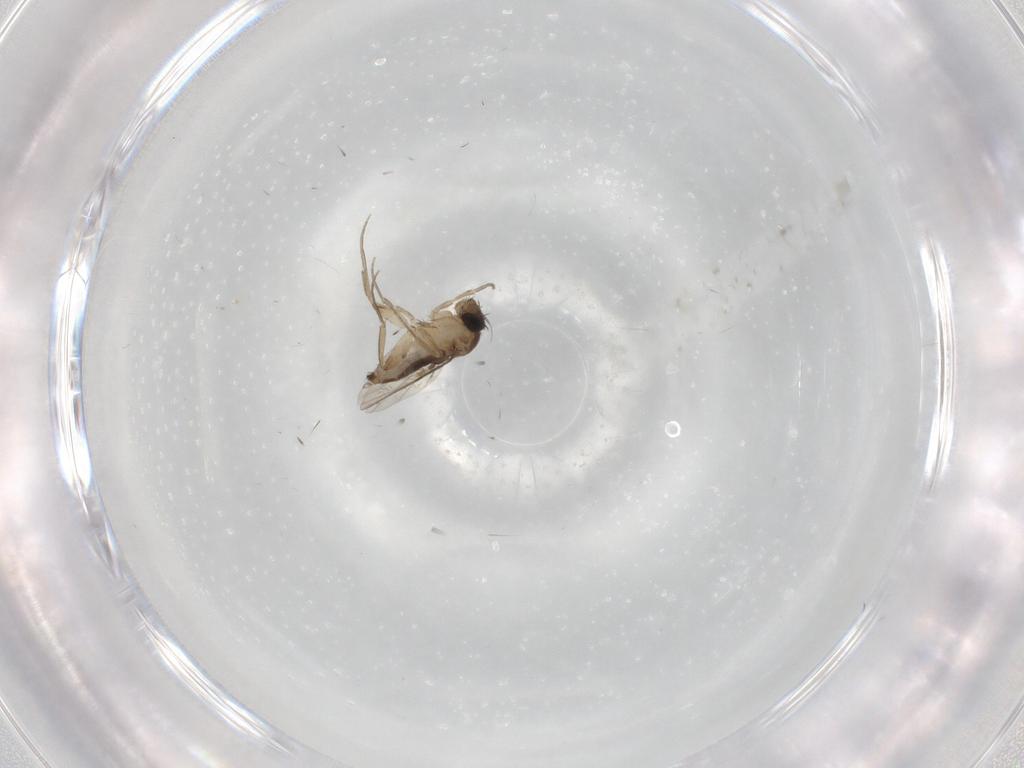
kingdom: Animalia
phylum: Arthropoda
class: Insecta
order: Diptera
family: Phoridae
